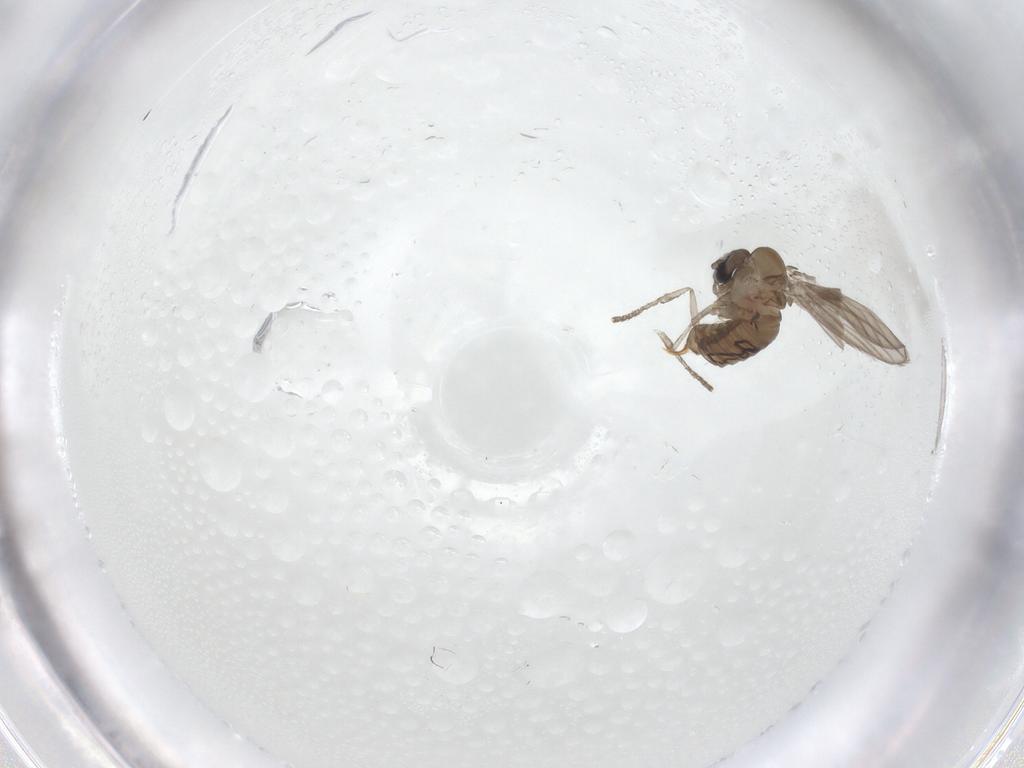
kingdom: Animalia
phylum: Arthropoda
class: Insecta
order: Diptera
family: Psychodidae
